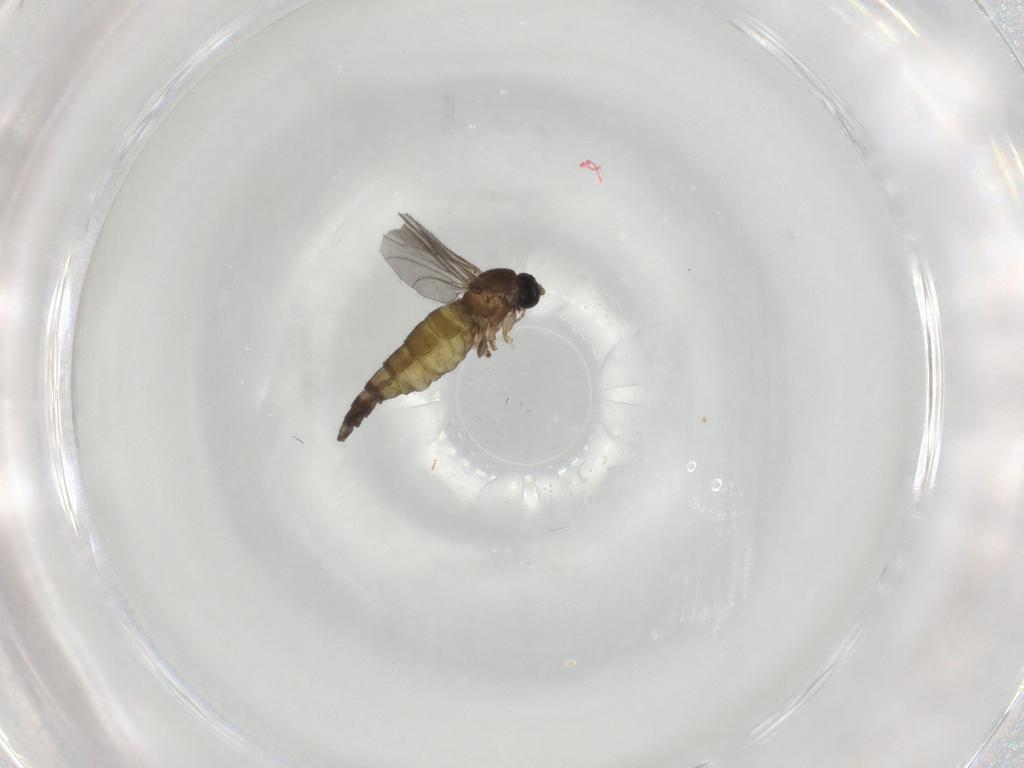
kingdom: Animalia
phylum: Arthropoda
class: Insecta
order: Diptera
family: Sciaridae
